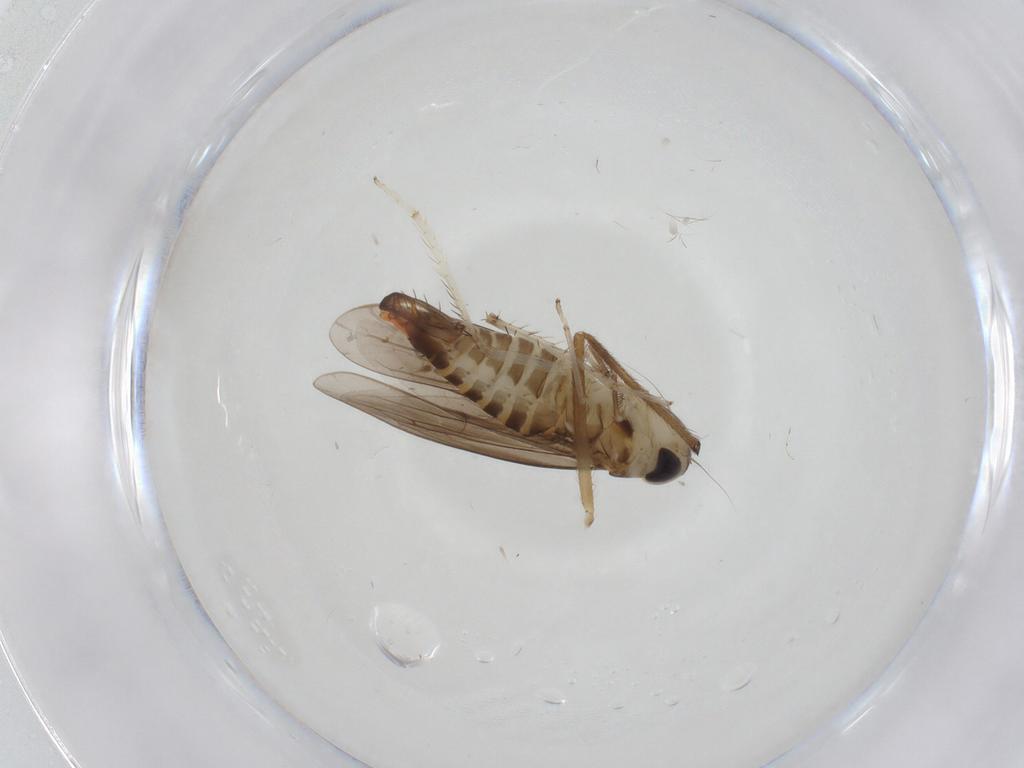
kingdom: Animalia
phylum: Arthropoda
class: Insecta
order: Hemiptera
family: Cicadellidae
